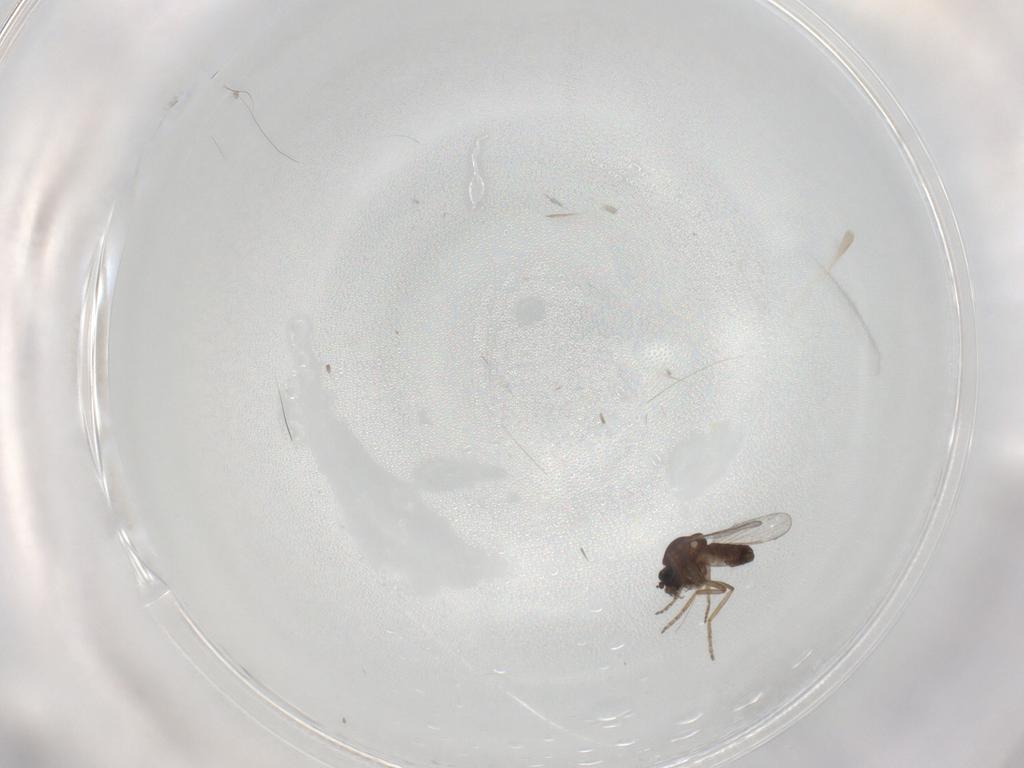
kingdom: Animalia
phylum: Arthropoda
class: Insecta
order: Diptera
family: Ceratopogonidae
